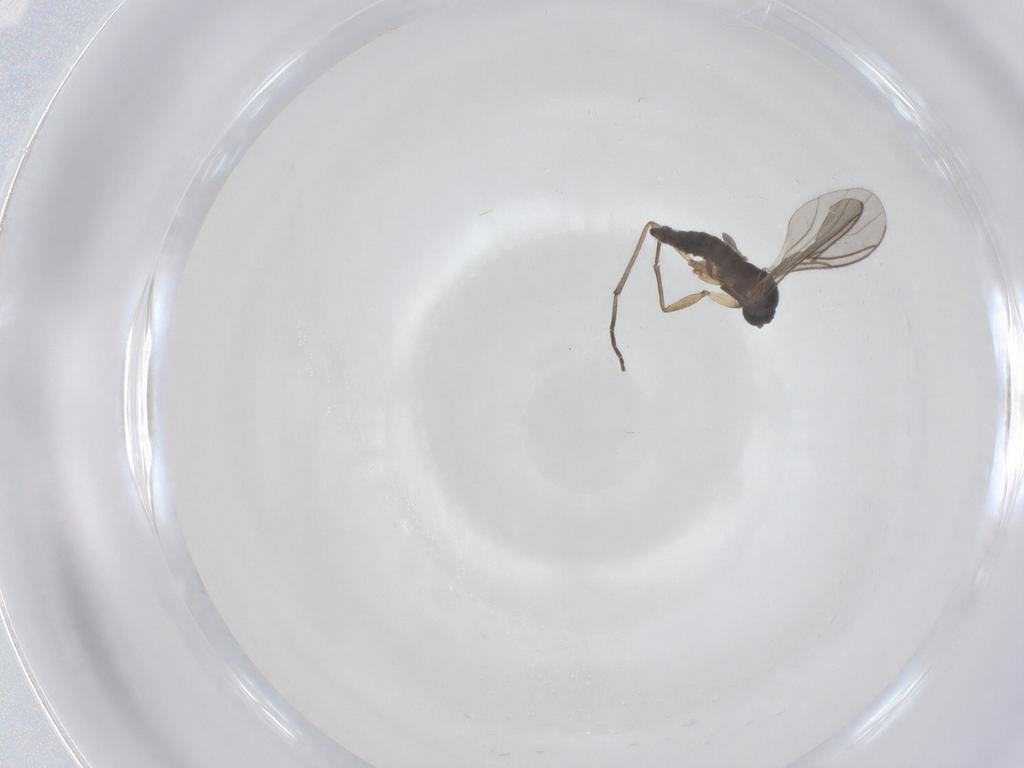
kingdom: Animalia
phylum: Arthropoda
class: Insecta
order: Diptera
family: Sciaridae
